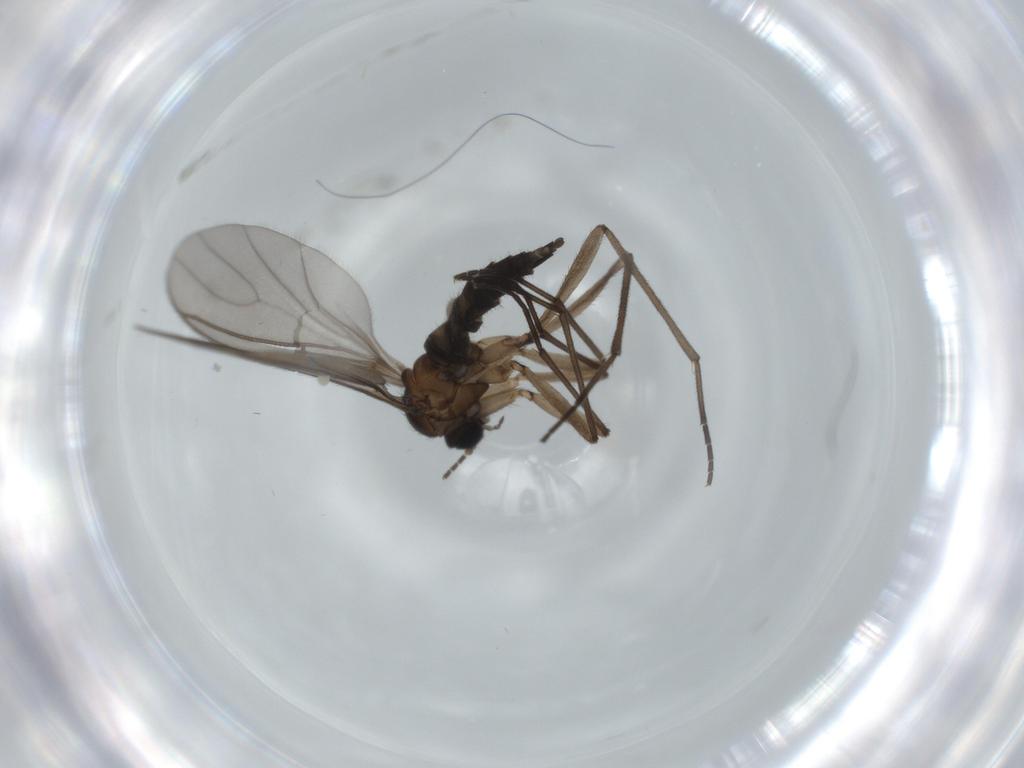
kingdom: Animalia
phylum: Arthropoda
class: Insecta
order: Diptera
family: Sciaridae
